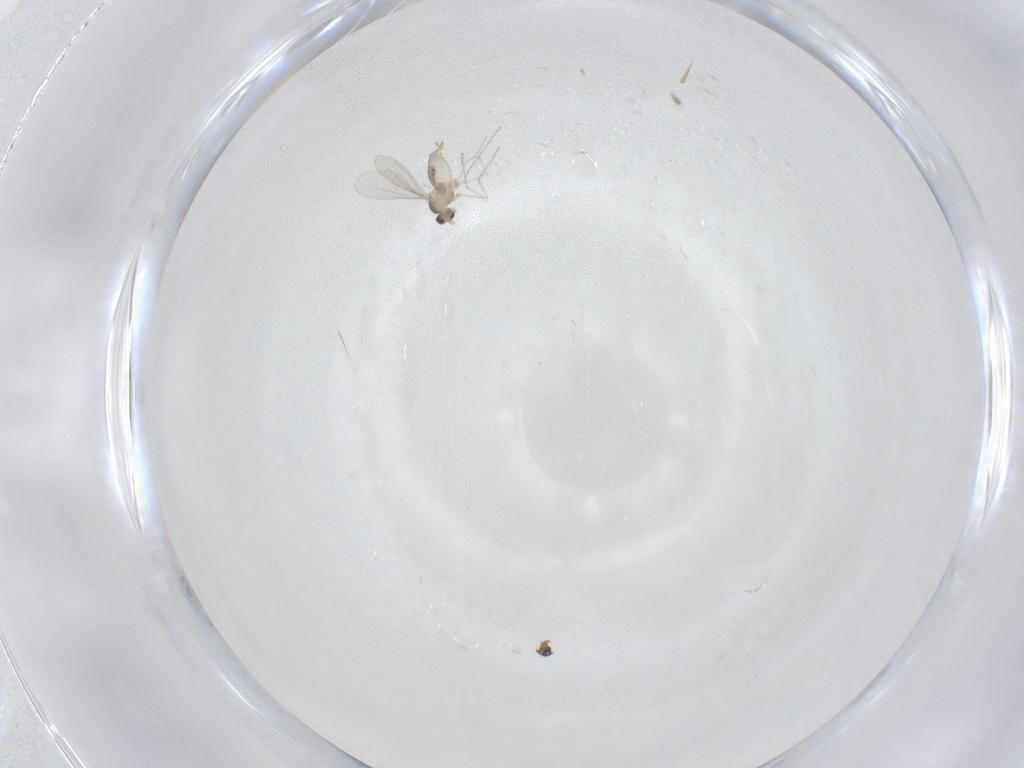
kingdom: Animalia
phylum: Arthropoda
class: Insecta
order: Diptera
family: Cecidomyiidae
